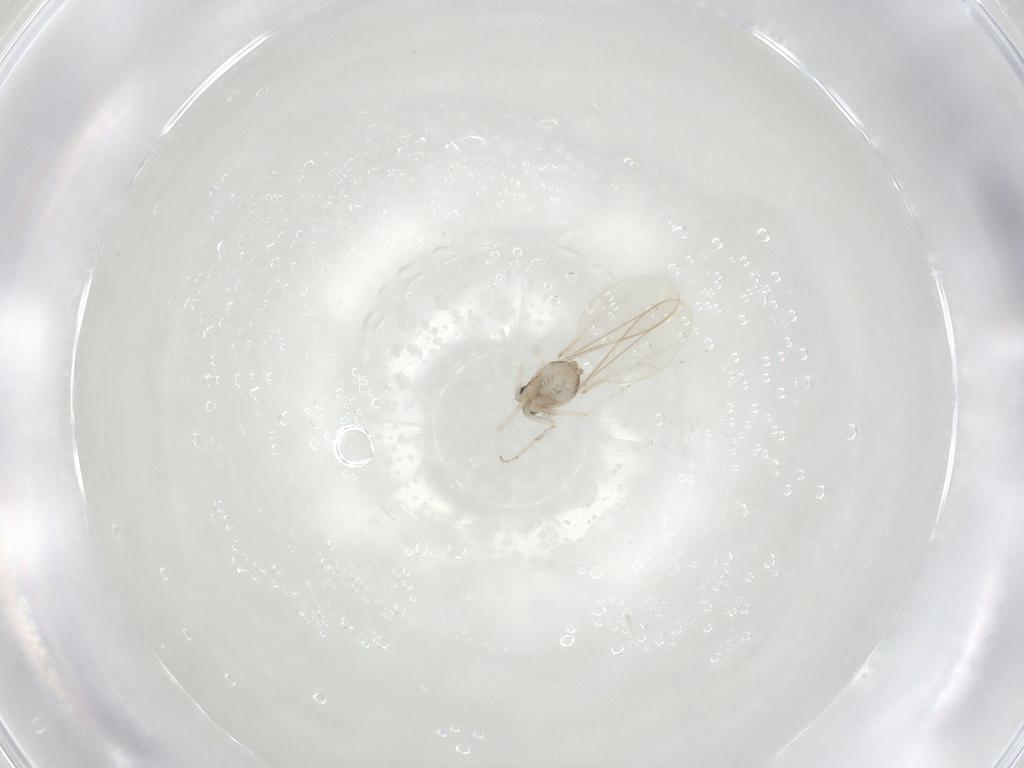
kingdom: Animalia
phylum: Arthropoda
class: Insecta
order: Diptera
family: Cecidomyiidae
